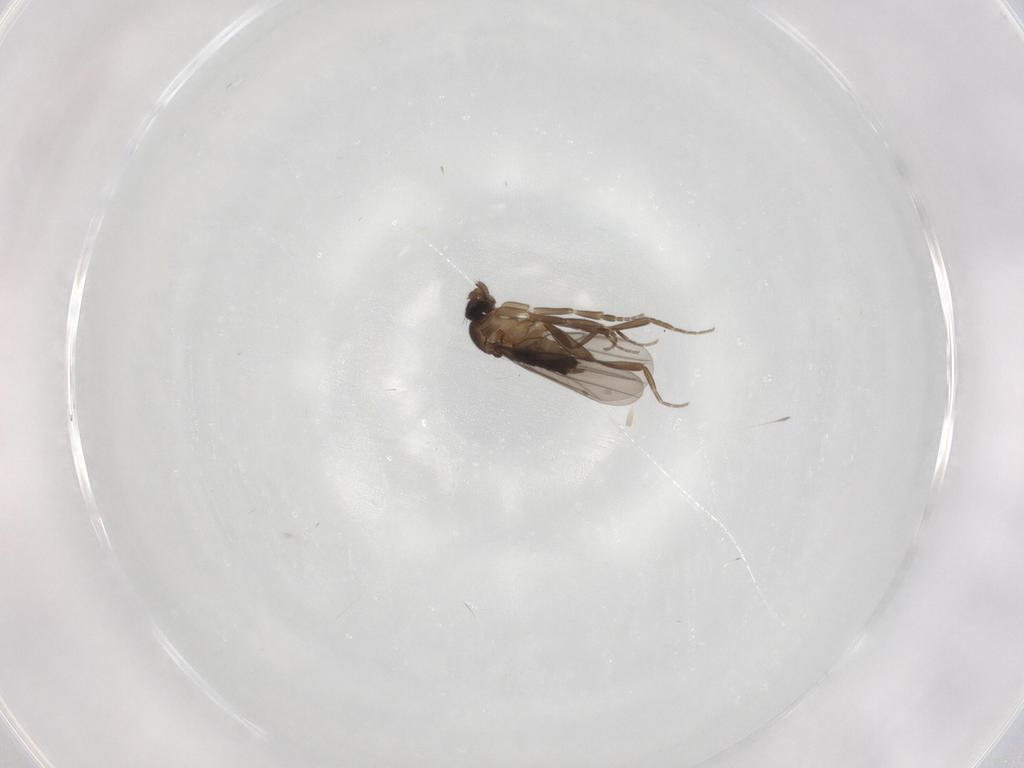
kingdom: Animalia
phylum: Arthropoda
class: Insecta
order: Diptera
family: Phoridae
